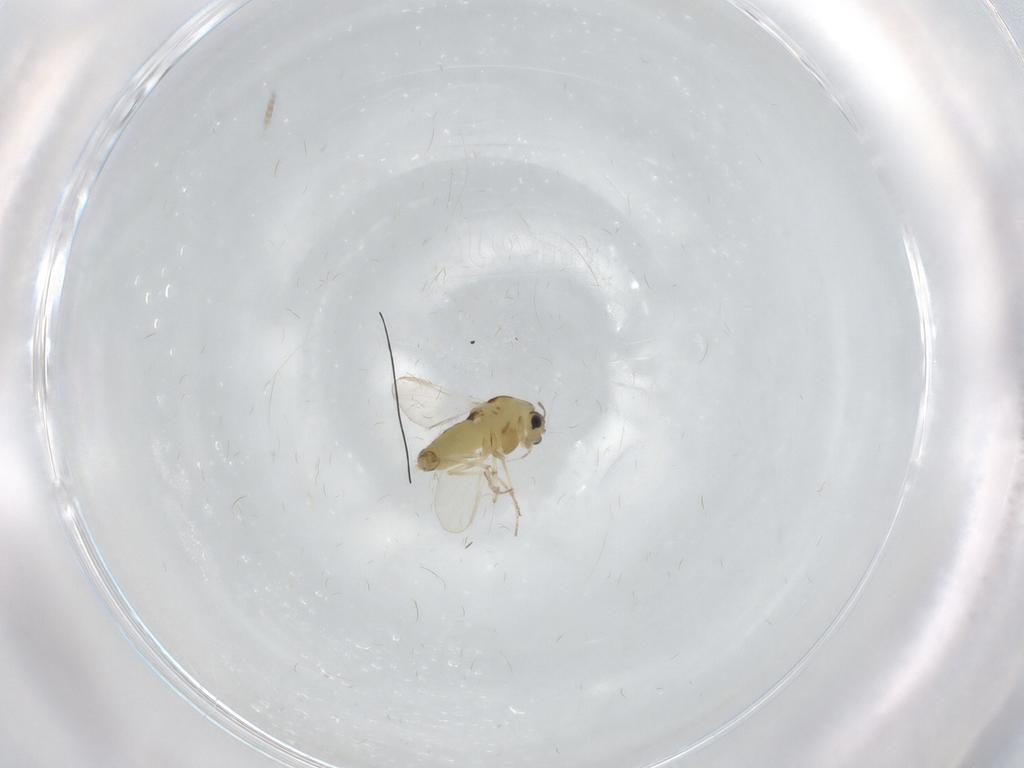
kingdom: Animalia
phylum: Arthropoda
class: Insecta
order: Diptera
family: Chironomidae
